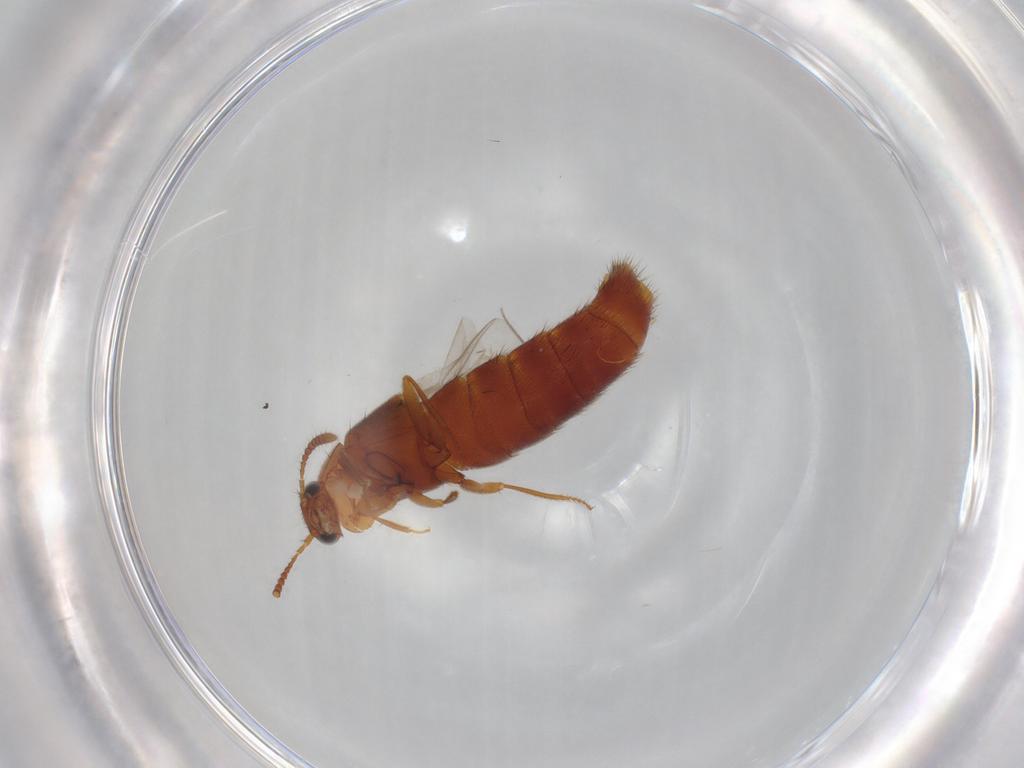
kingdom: Animalia
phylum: Arthropoda
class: Insecta
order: Coleoptera
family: Staphylinidae
